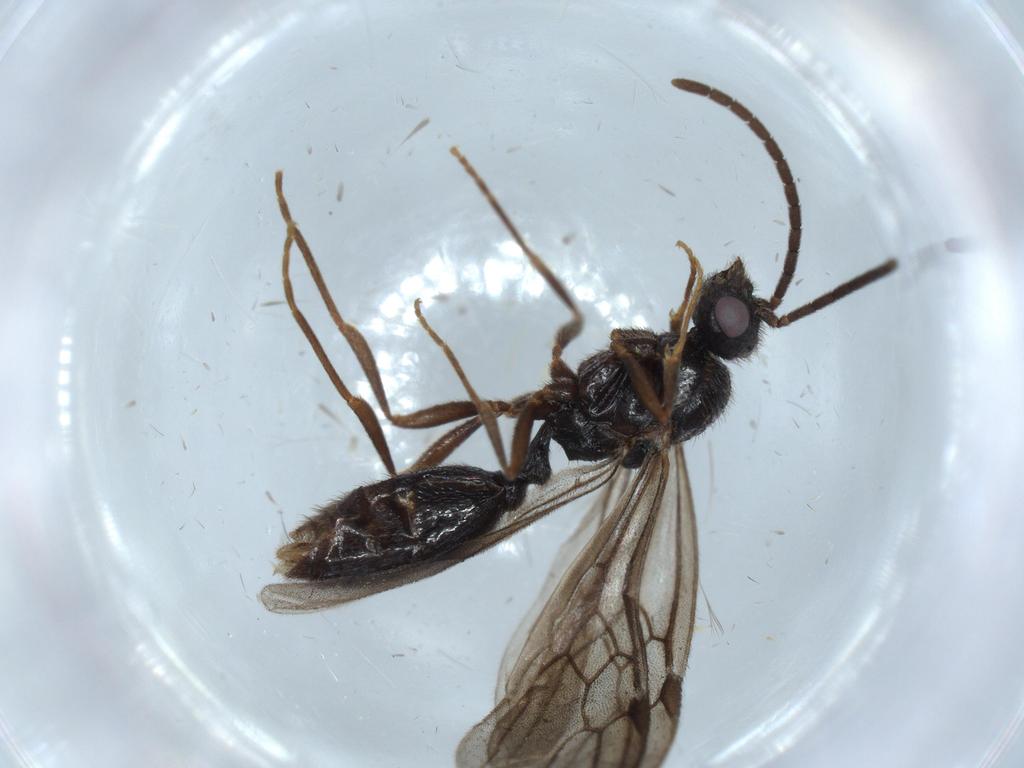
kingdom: Animalia
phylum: Arthropoda
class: Insecta
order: Hymenoptera
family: Formicidae
